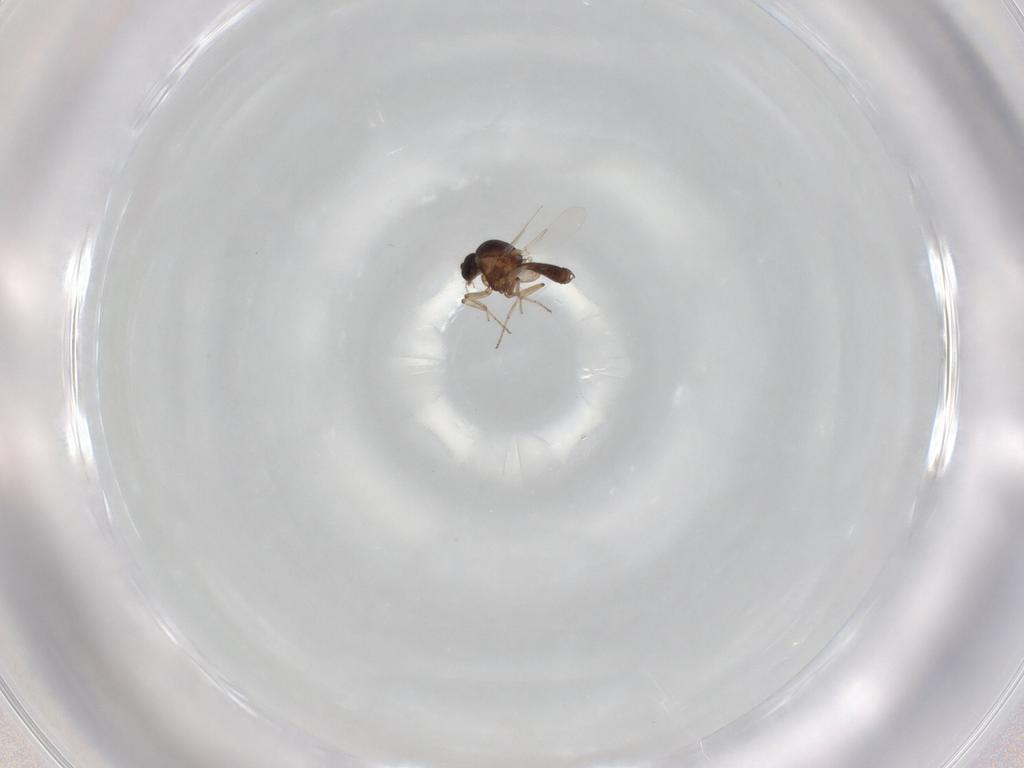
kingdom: Animalia
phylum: Arthropoda
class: Insecta
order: Diptera
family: Ceratopogonidae
